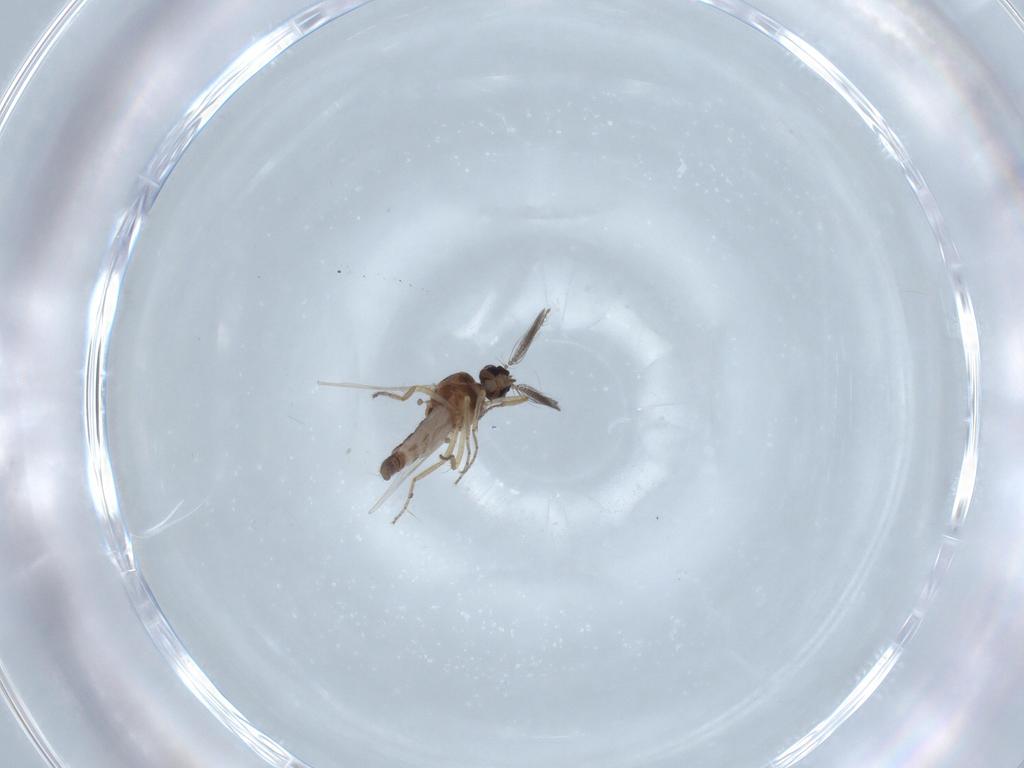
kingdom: Animalia
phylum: Arthropoda
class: Insecta
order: Diptera
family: Ceratopogonidae
